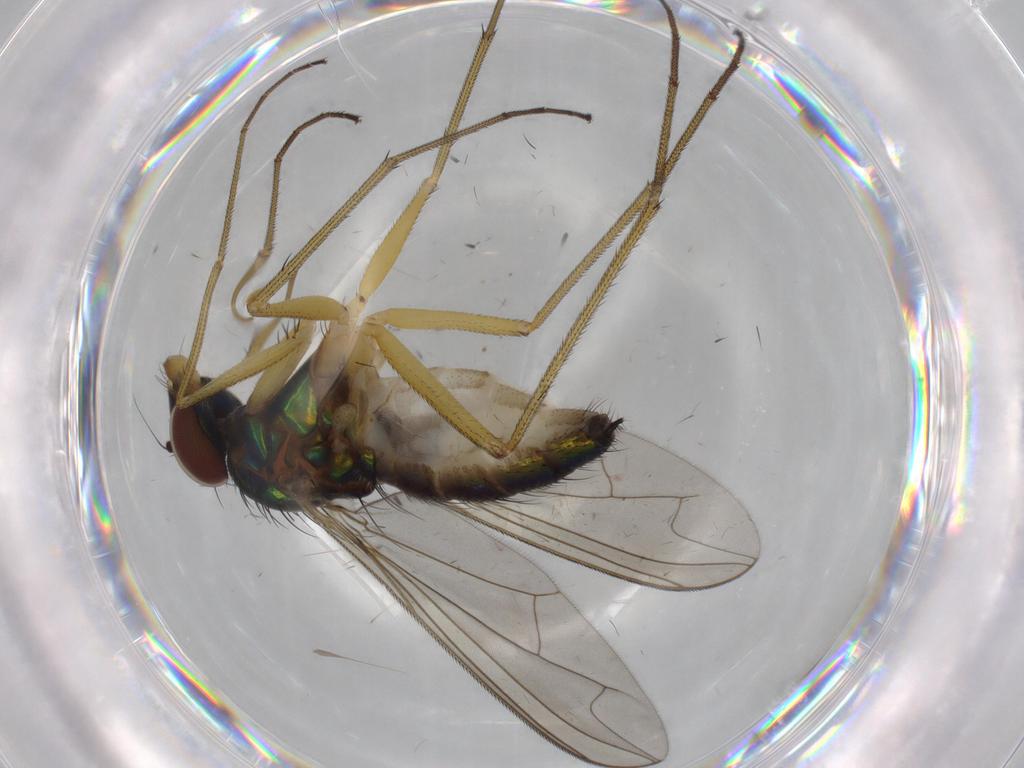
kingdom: Animalia
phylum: Arthropoda
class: Insecta
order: Diptera
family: Dolichopodidae
